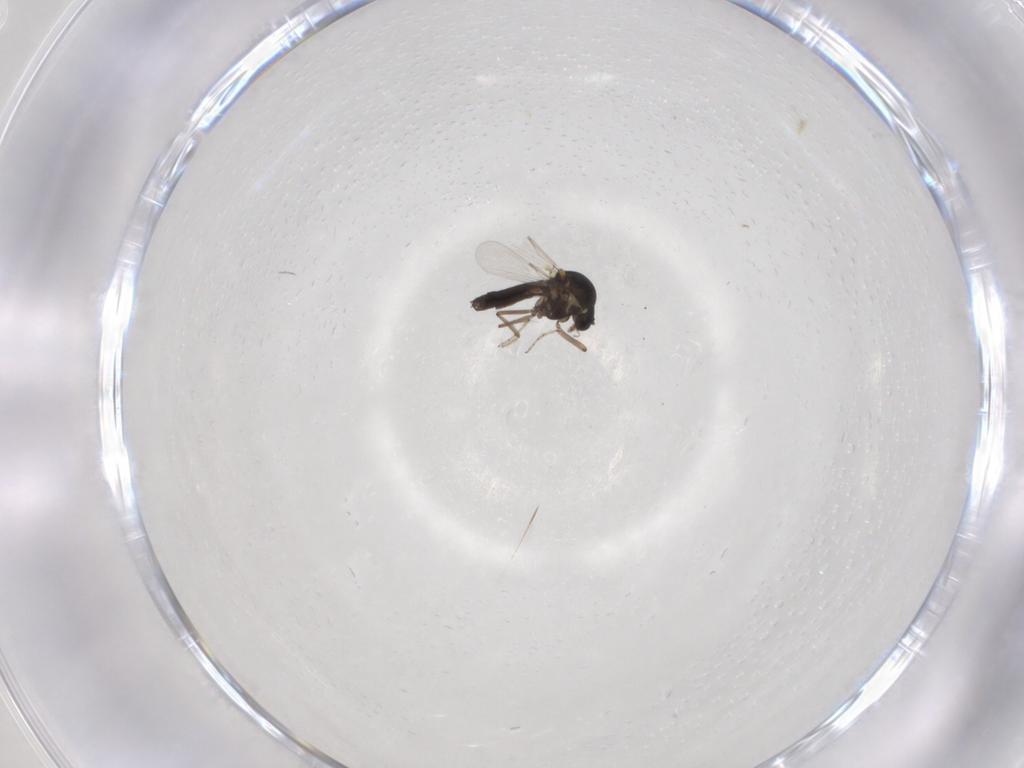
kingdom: Animalia
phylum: Arthropoda
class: Insecta
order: Diptera
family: Ceratopogonidae
